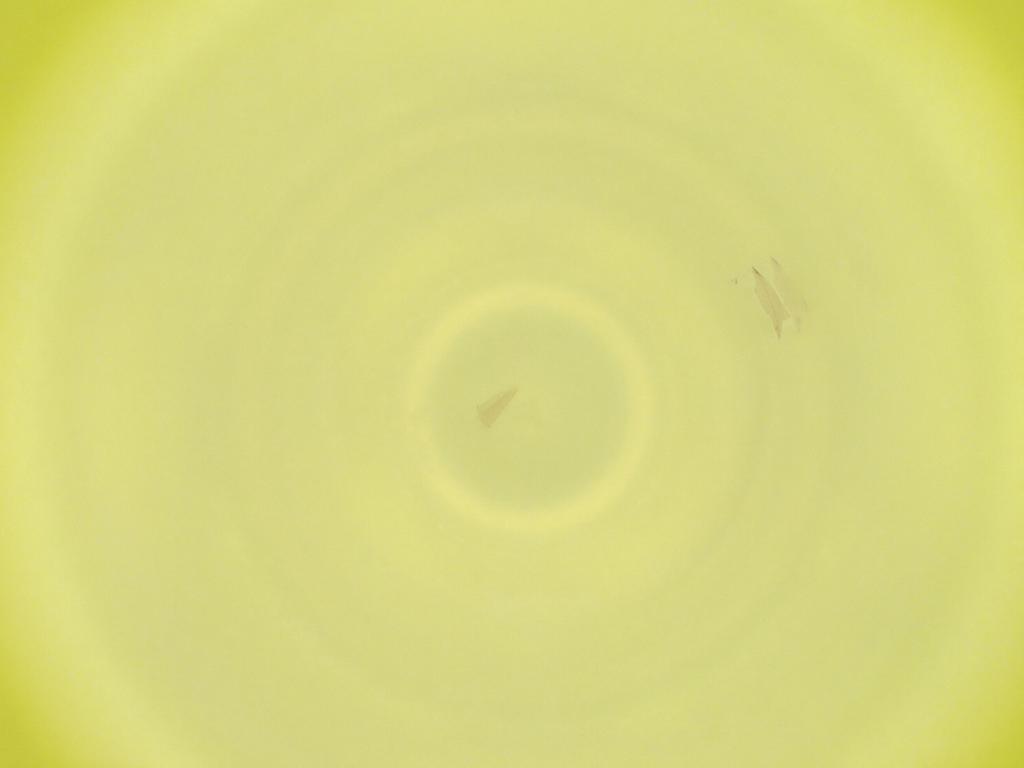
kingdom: Animalia
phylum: Arthropoda
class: Insecta
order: Diptera
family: Cecidomyiidae
